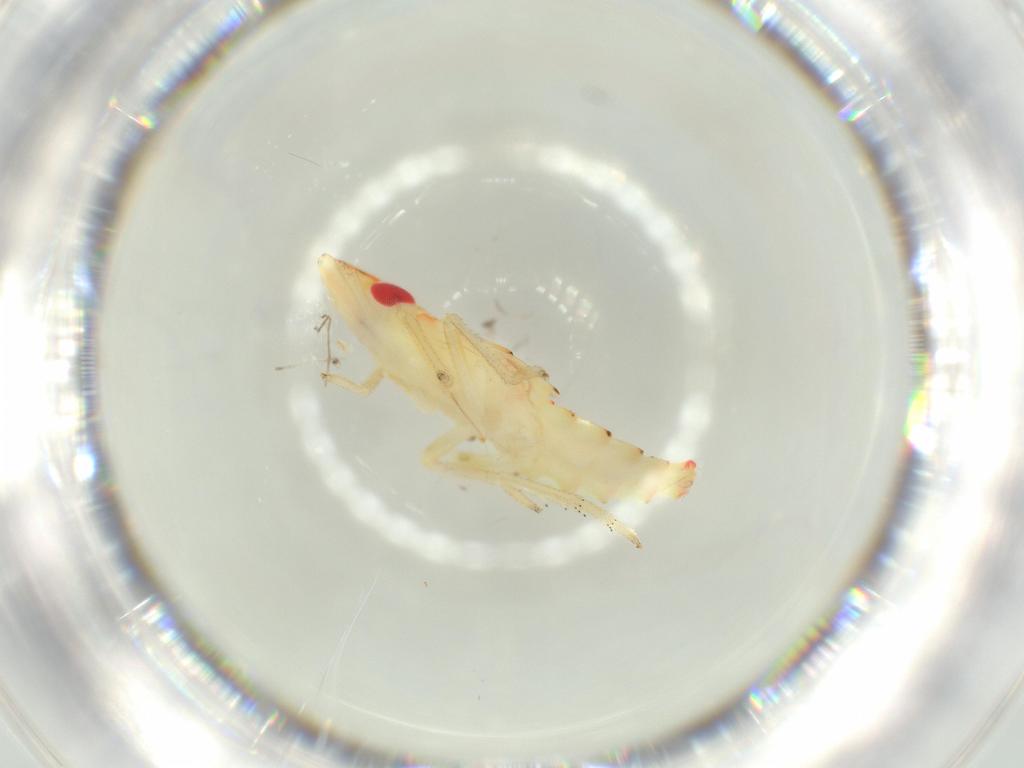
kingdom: Animalia
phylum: Arthropoda
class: Insecta
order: Hemiptera
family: Tropiduchidae
